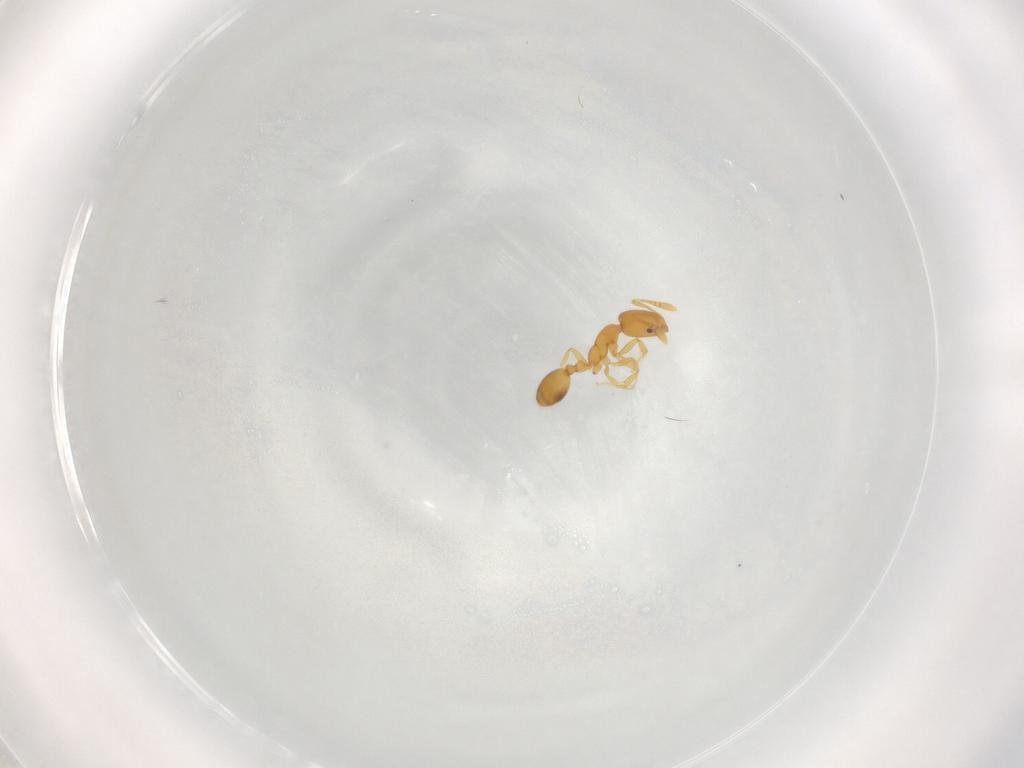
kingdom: Animalia
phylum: Arthropoda
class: Insecta
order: Hymenoptera
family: Formicidae
